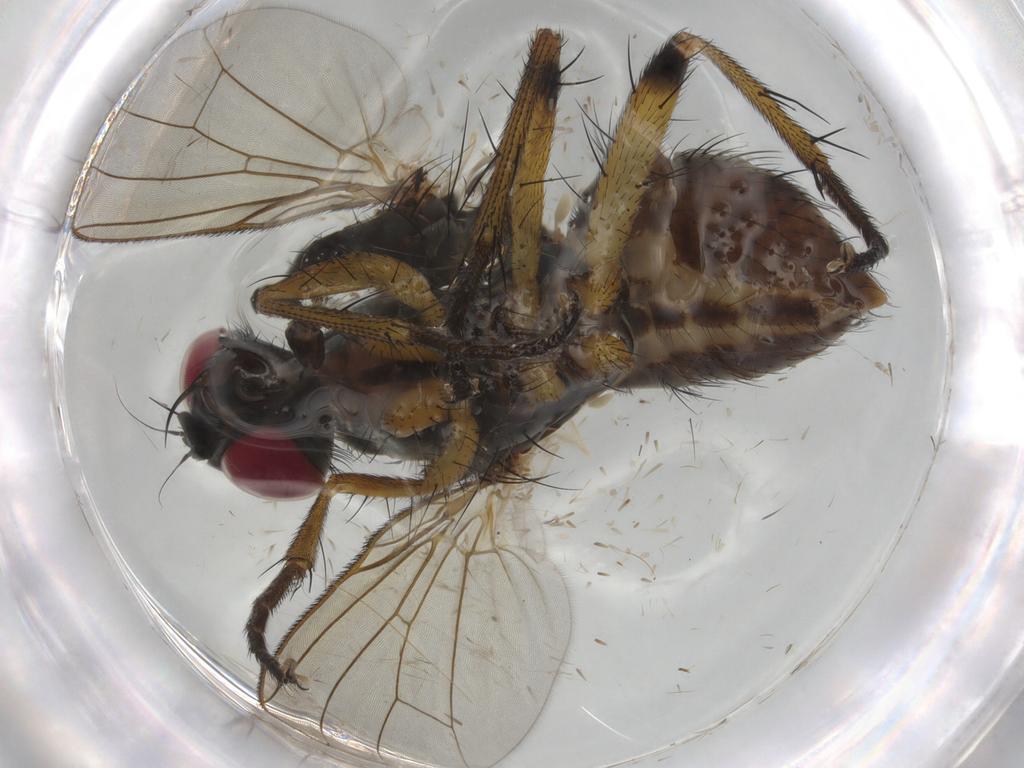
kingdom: Animalia
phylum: Arthropoda
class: Insecta
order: Diptera
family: Muscidae
